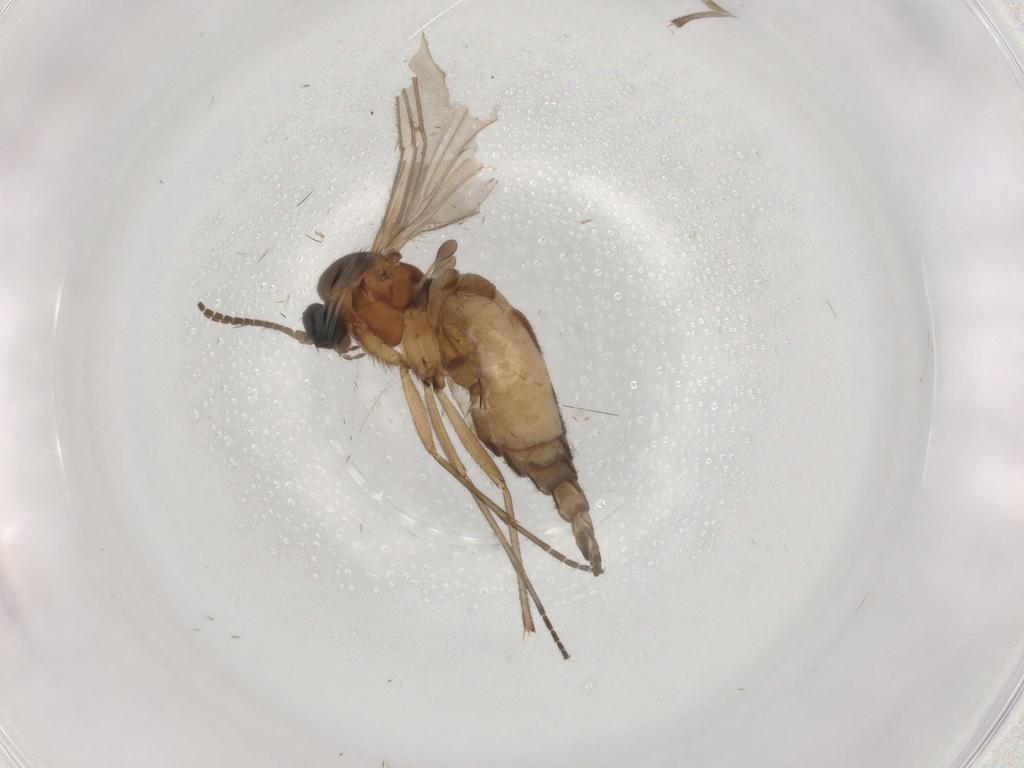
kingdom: Animalia
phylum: Arthropoda
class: Insecta
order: Diptera
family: Sciaridae
